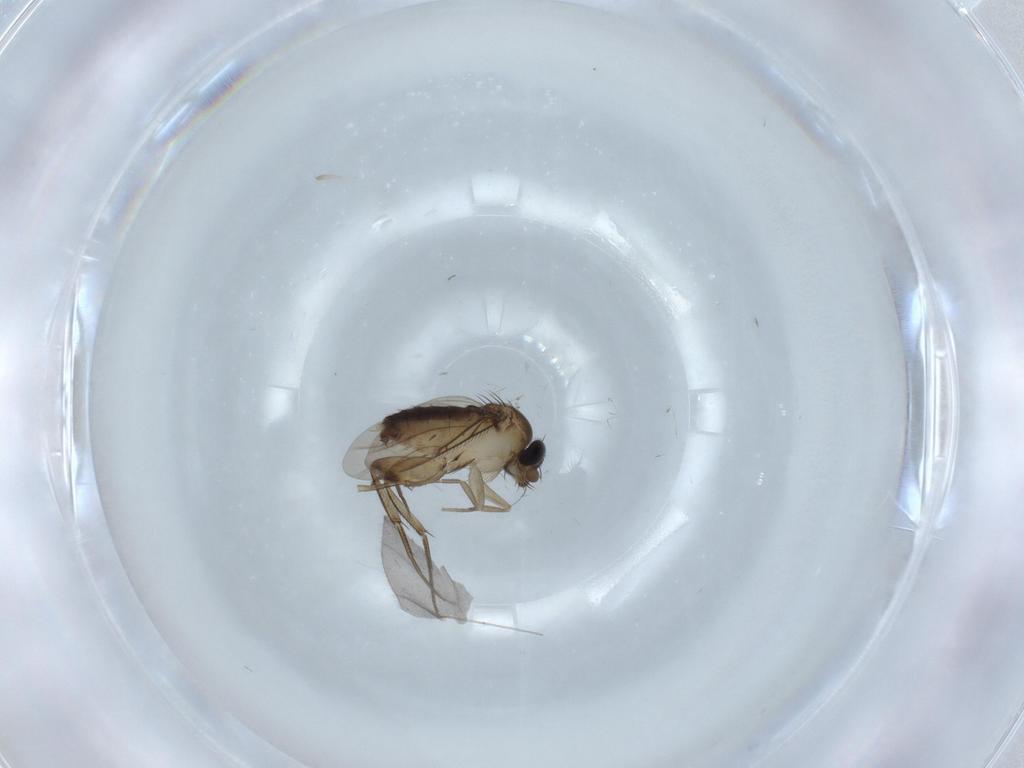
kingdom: Animalia
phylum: Arthropoda
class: Insecta
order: Diptera
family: Phoridae
